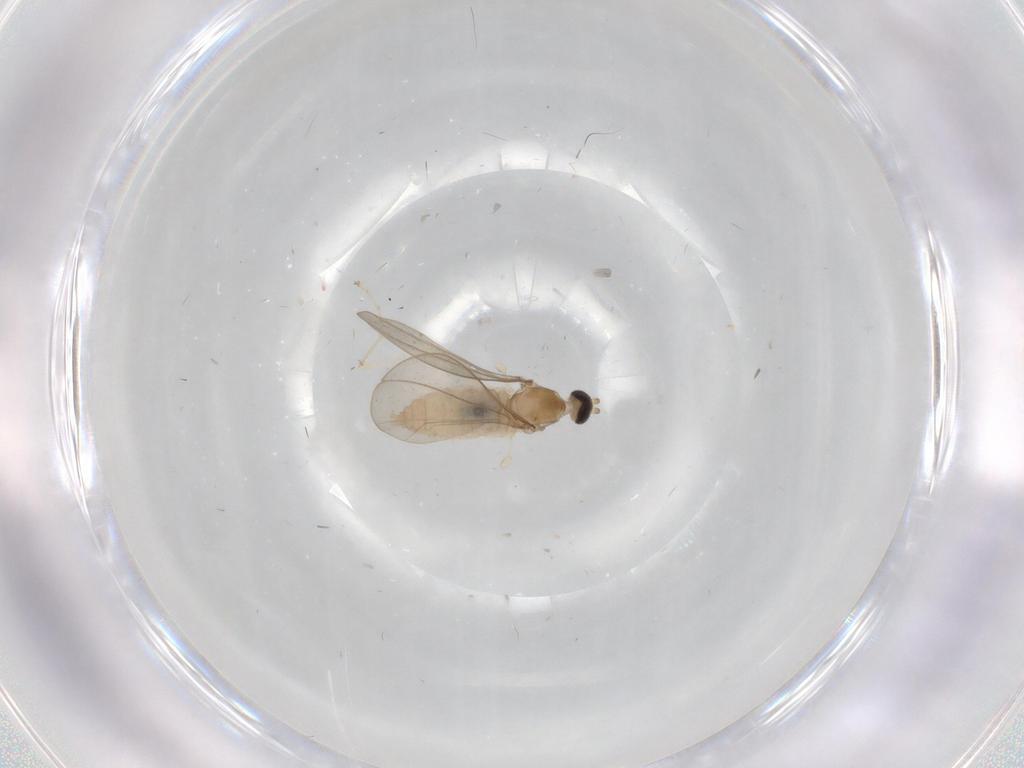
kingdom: Animalia
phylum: Arthropoda
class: Insecta
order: Diptera
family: Cecidomyiidae
